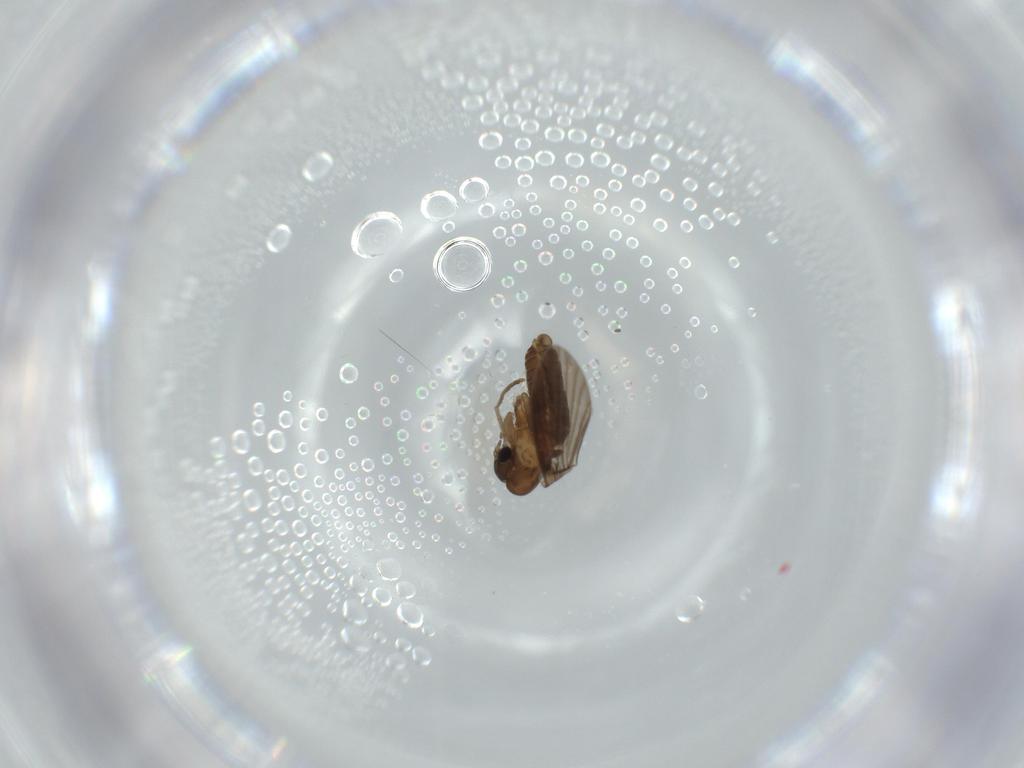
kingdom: Animalia
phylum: Arthropoda
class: Insecta
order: Diptera
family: Psychodidae
